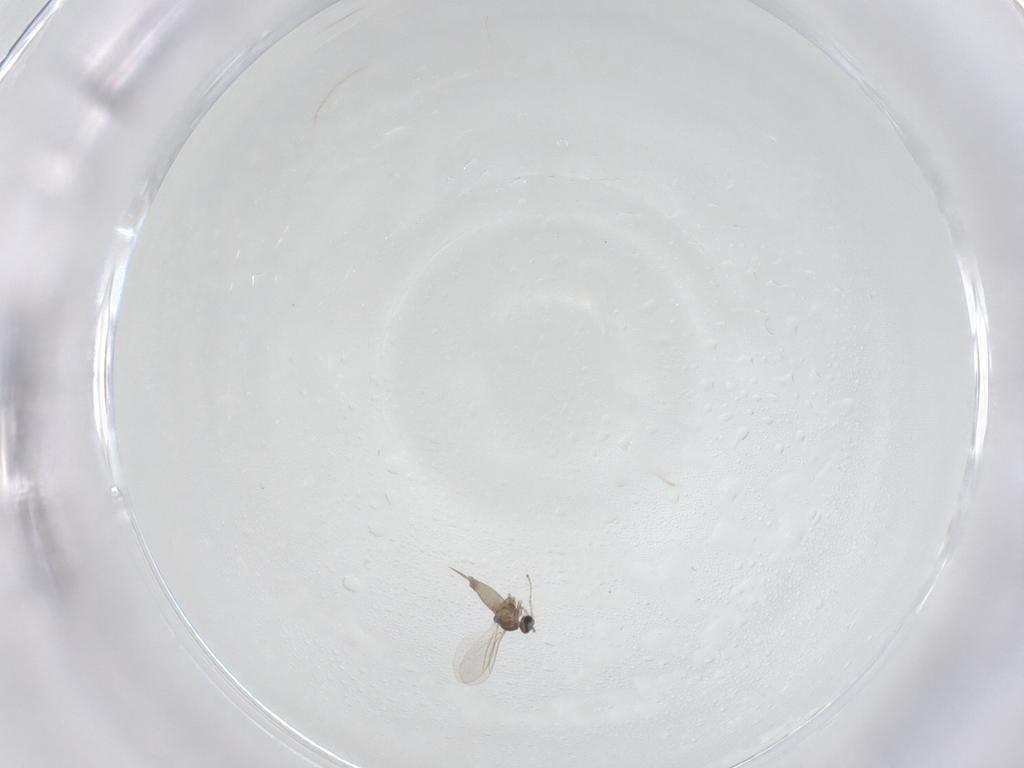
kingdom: Animalia
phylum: Arthropoda
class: Insecta
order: Diptera
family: Cecidomyiidae
